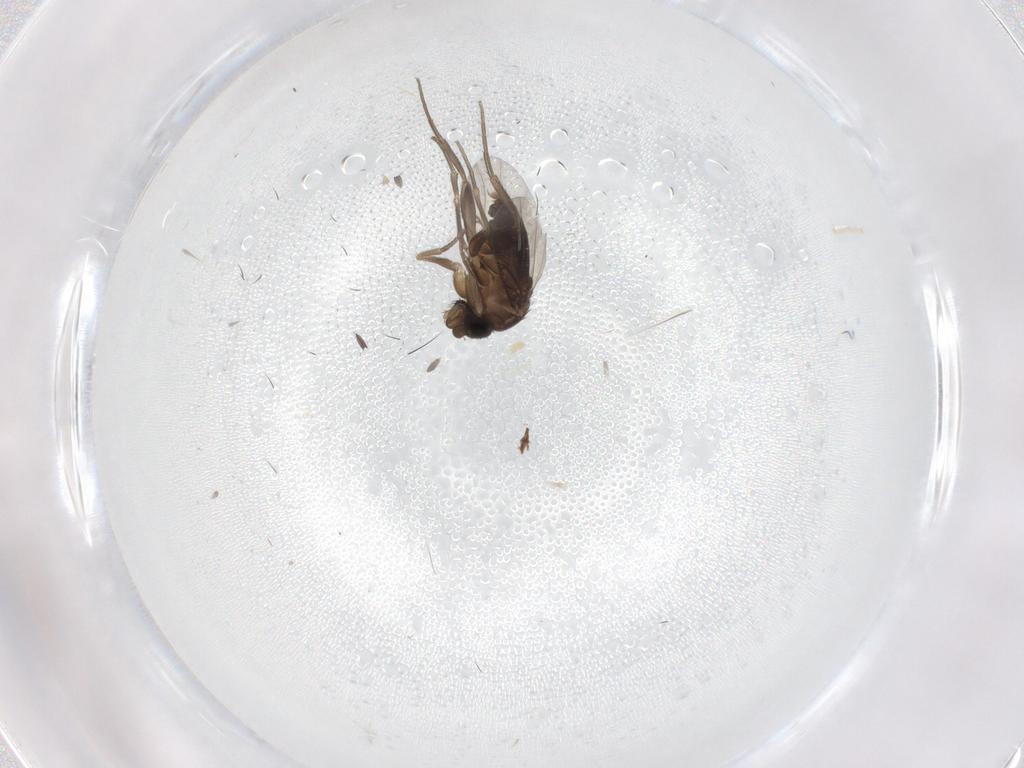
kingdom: Animalia
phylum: Arthropoda
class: Insecta
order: Diptera
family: Phoridae
